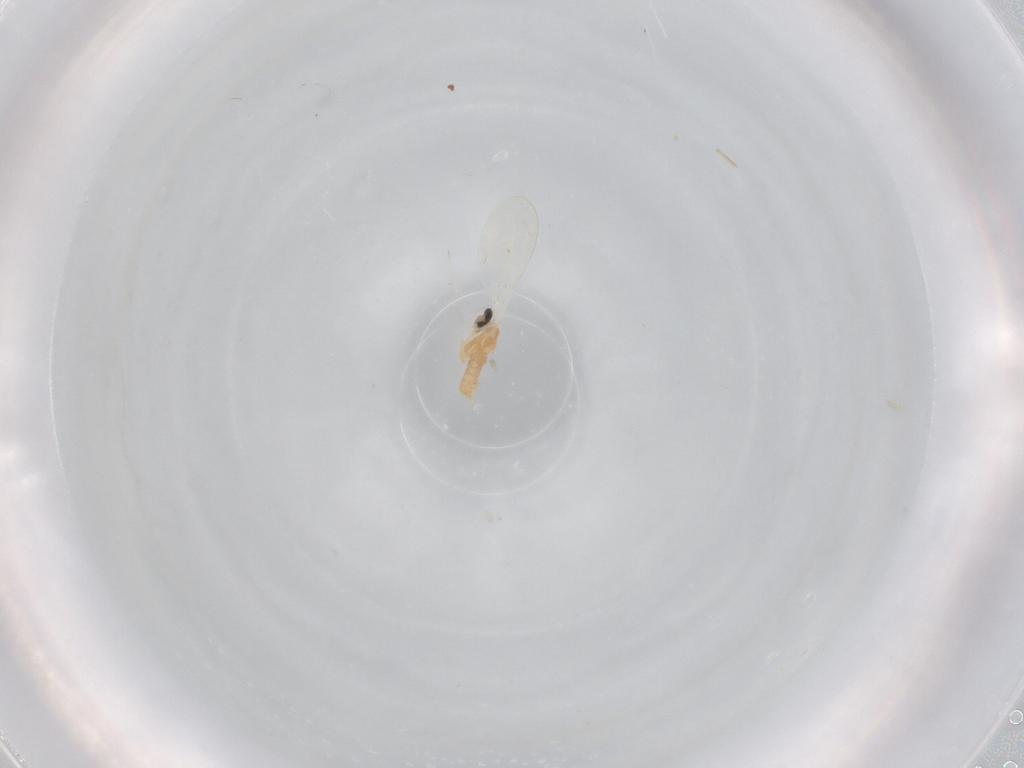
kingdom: Animalia
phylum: Arthropoda
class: Insecta
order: Diptera
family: Cecidomyiidae
